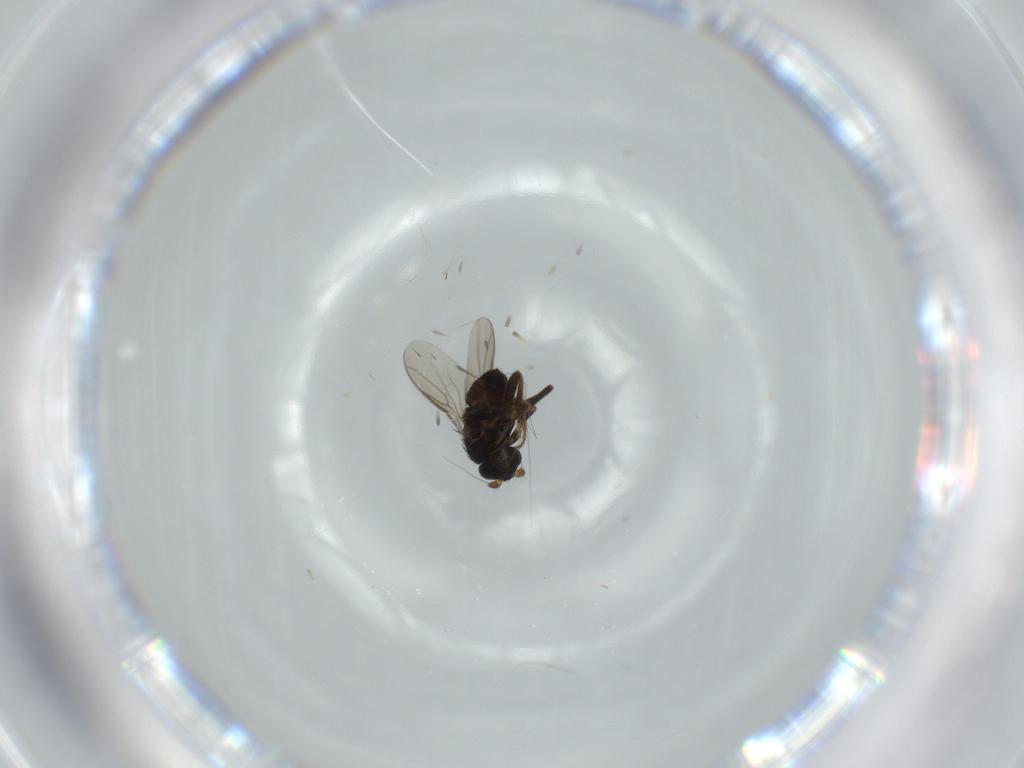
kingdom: Animalia
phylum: Arthropoda
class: Insecta
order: Diptera
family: Sphaeroceridae
